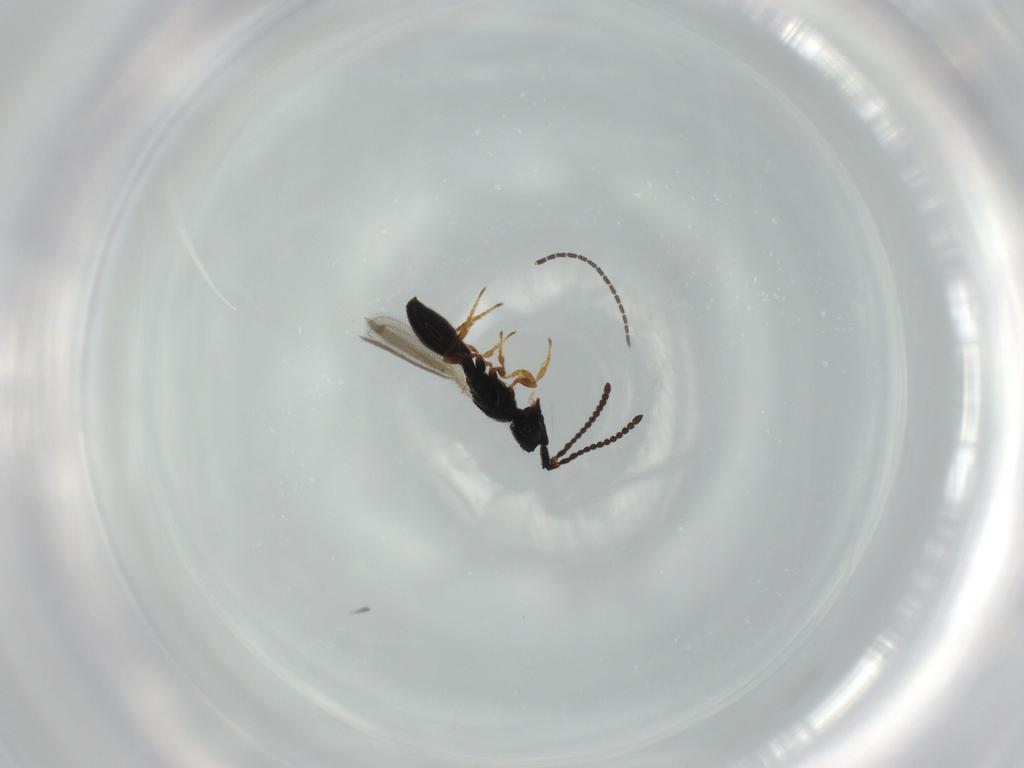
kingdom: Animalia
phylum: Arthropoda
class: Insecta
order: Hymenoptera
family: Diapriidae
